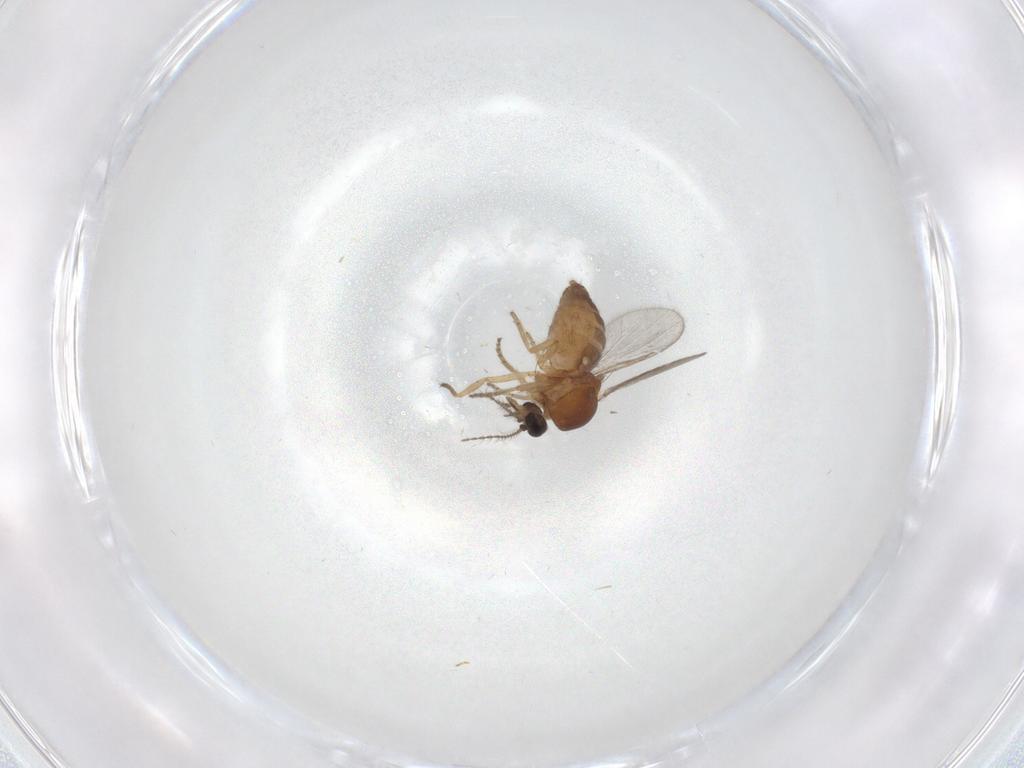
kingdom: Animalia
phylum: Arthropoda
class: Insecta
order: Diptera
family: Ceratopogonidae
